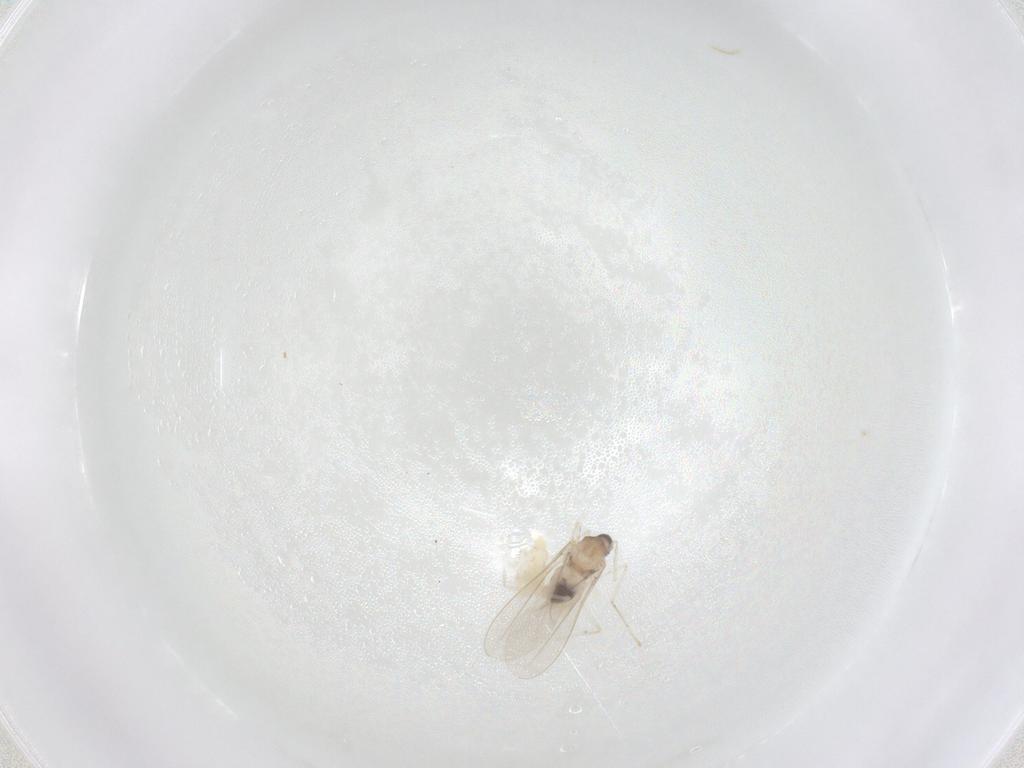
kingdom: Animalia
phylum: Arthropoda
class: Insecta
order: Diptera
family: Cecidomyiidae
